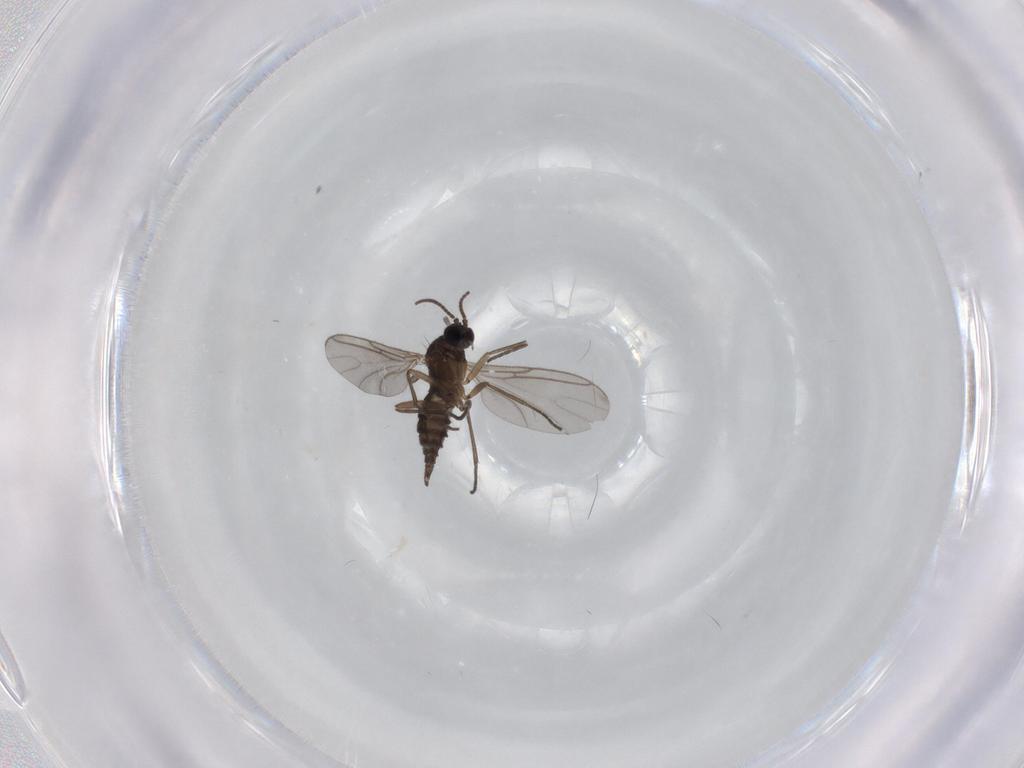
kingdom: Animalia
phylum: Arthropoda
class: Insecta
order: Diptera
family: Sciaridae
